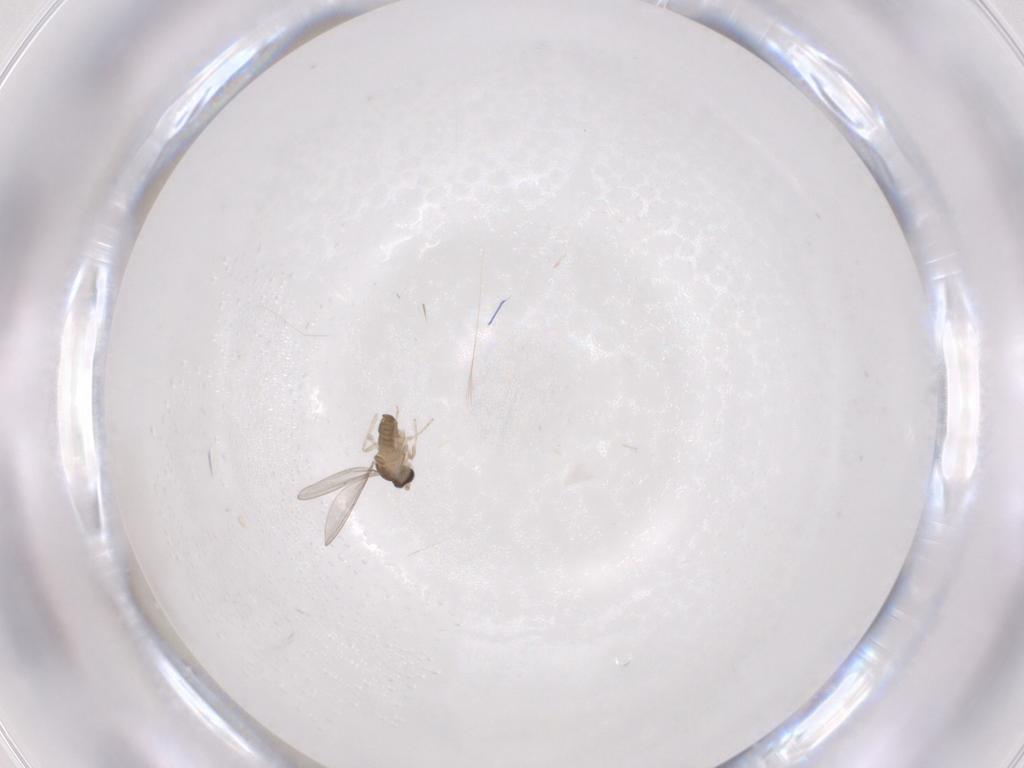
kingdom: Animalia
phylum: Arthropoda
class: Insecta
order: Diptera
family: Cecidomyiidae
